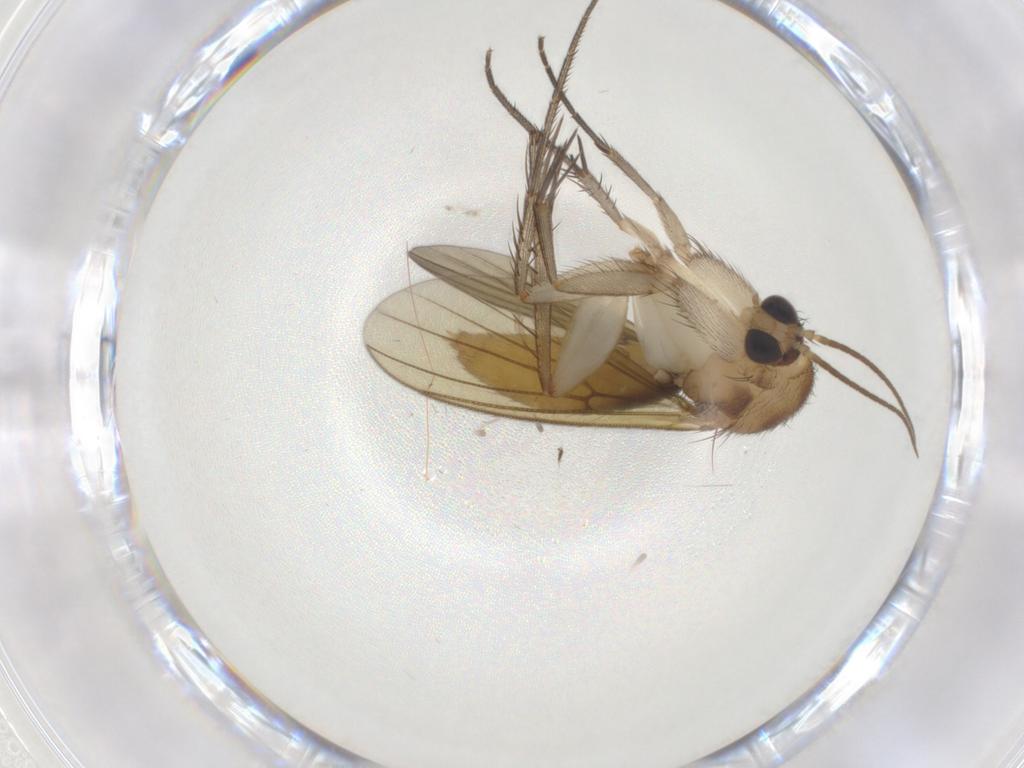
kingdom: Animalia
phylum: Arthropoda
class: Insecta
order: Diptera
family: Mycetophilidae
